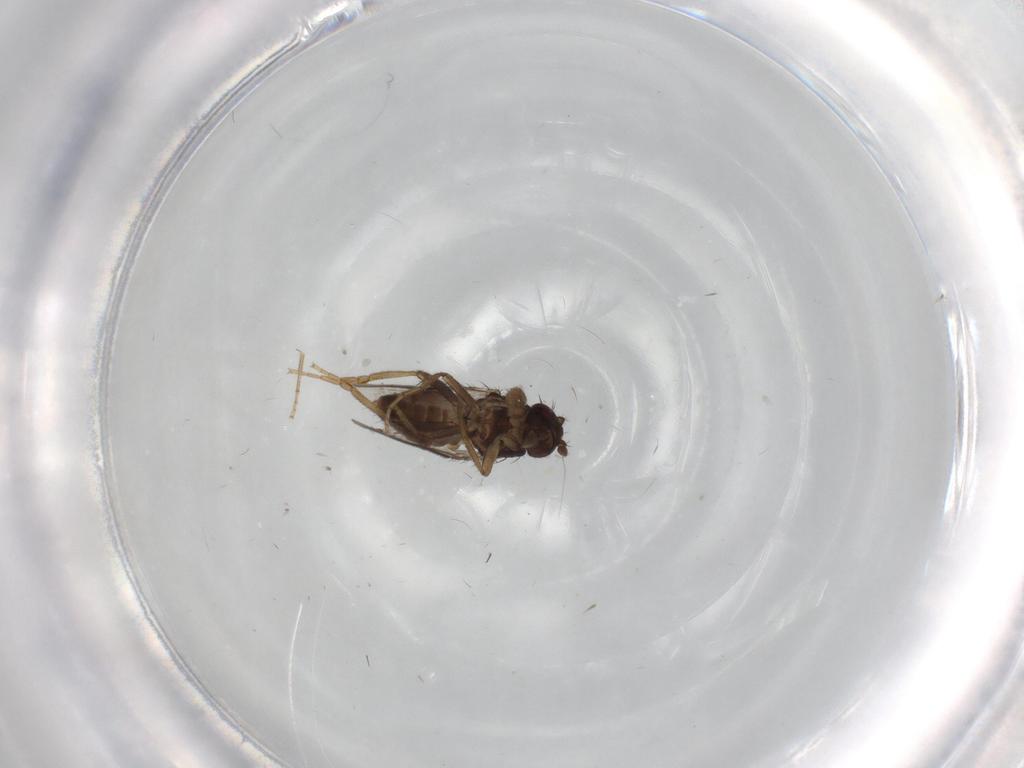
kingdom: Animalia
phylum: Arthropoda
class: Insecta
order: Diptera
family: Sphaeroceridae
